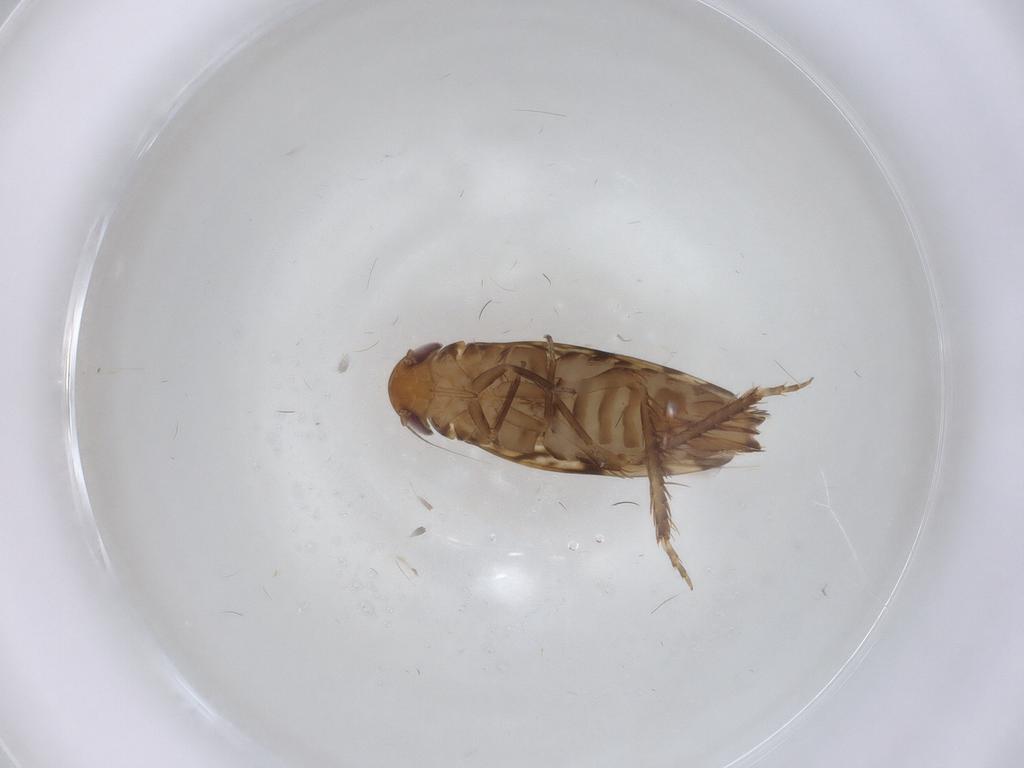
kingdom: Animalia
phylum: Arthropoda
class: Insecta
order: Hemiptera
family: Cicadellidae
